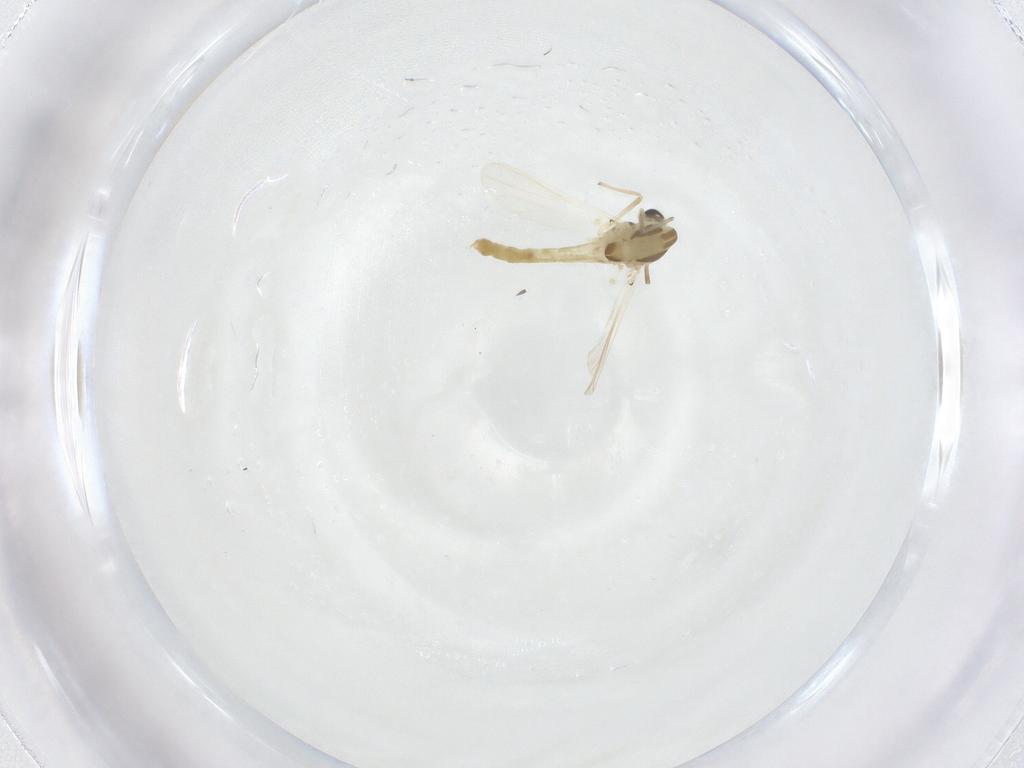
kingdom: Animalia
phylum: Arthropoda
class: Insecta
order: Diptera
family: Chironomidae
